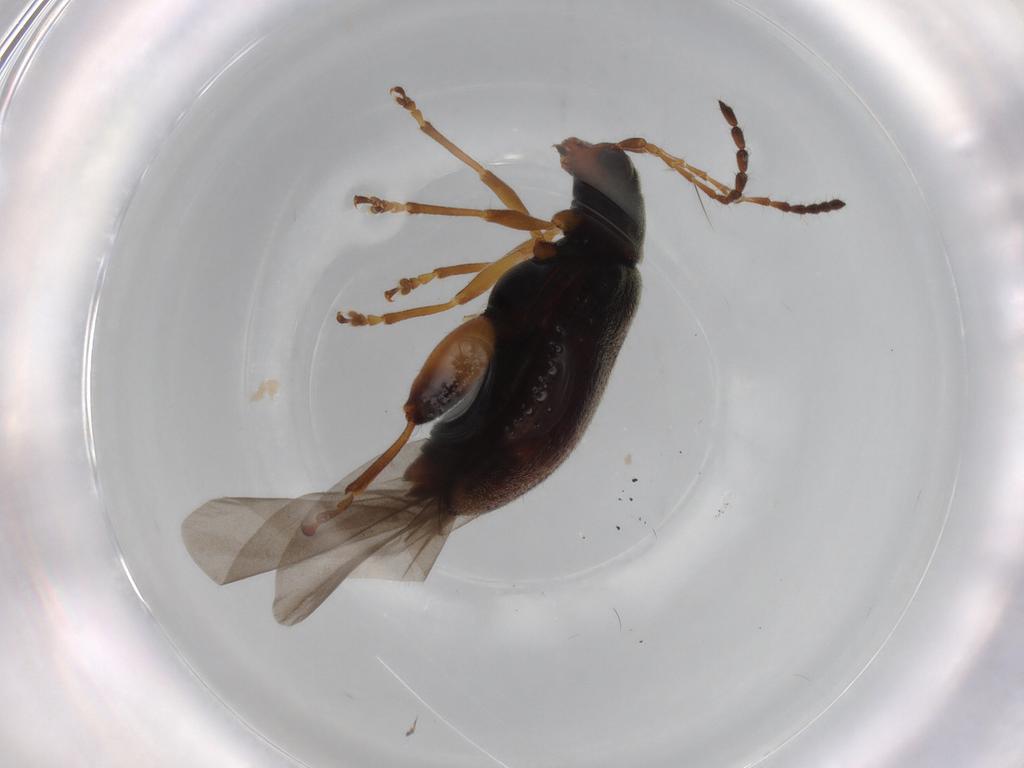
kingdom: Animalia
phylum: Arthropoda
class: Insecta
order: Coleoptera
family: Chrysomelidae
